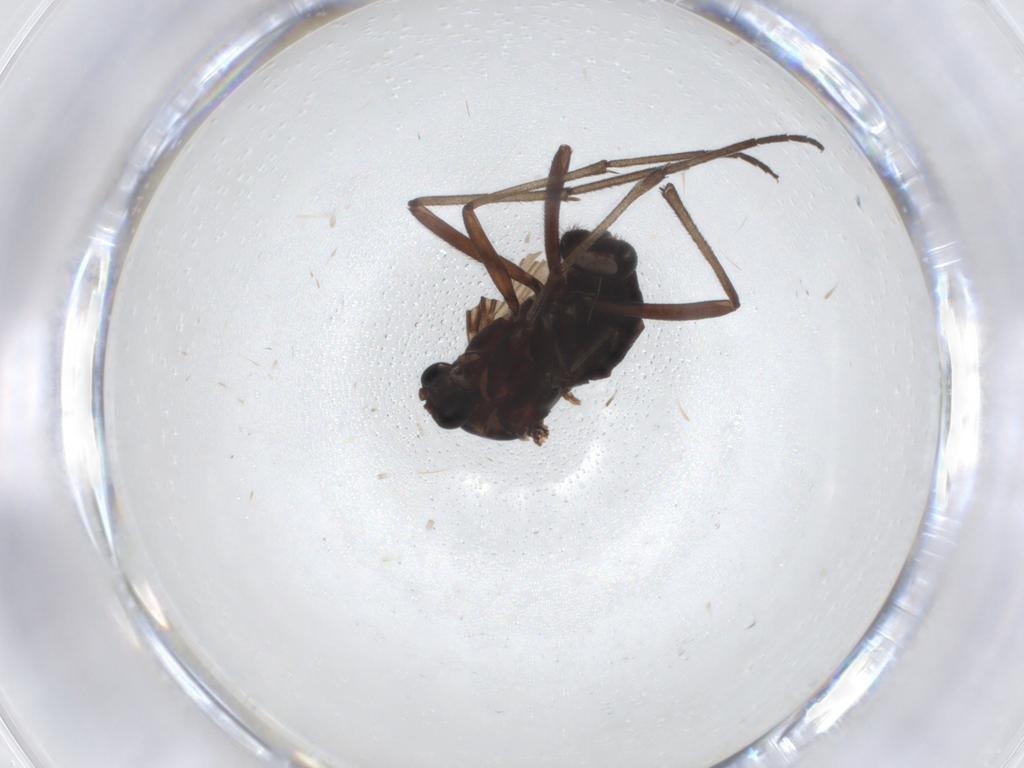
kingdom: Animalia
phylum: Arthropoda
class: Insecta
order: Diptera
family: Sciaridae
